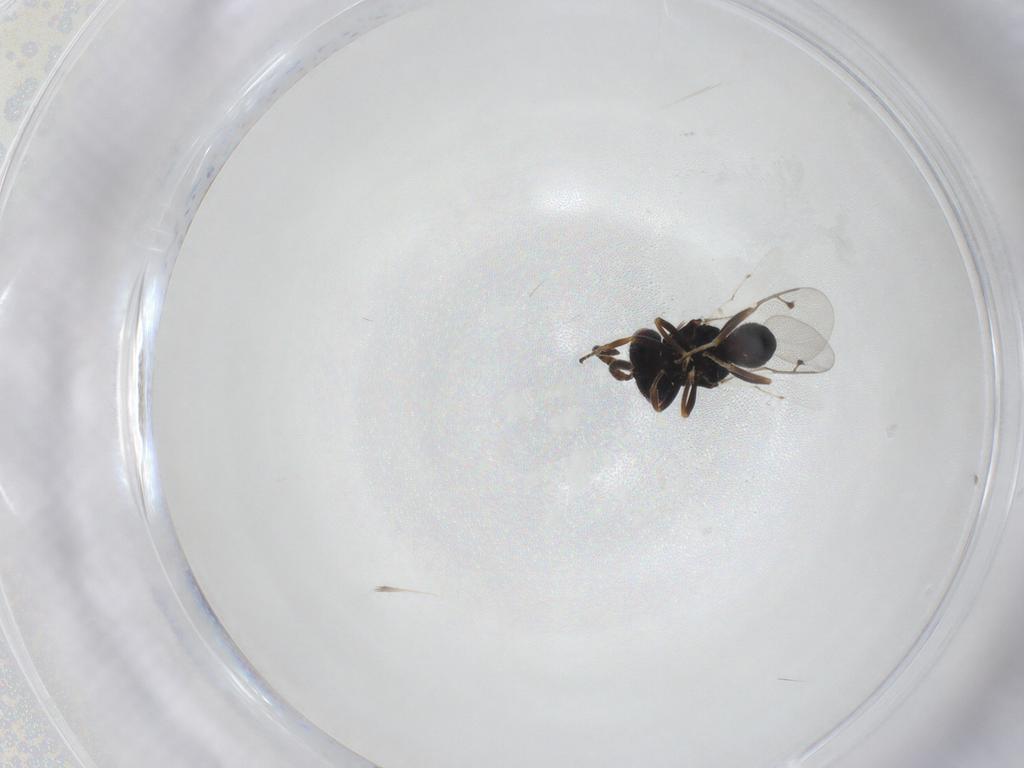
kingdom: Animalia
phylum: Arthropoda
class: Insecta
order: Hymenoptera
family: Pteromalidae
